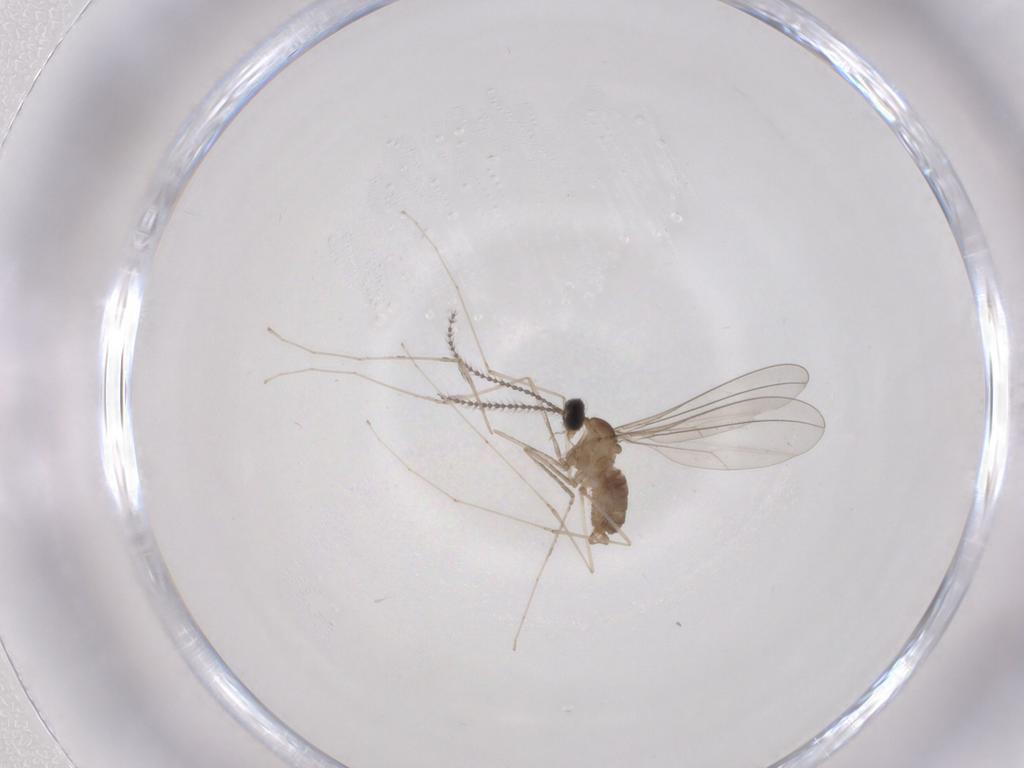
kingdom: Animalia
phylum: Arthropoda
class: Insecta
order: Diptera
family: Cecidomyiidae
